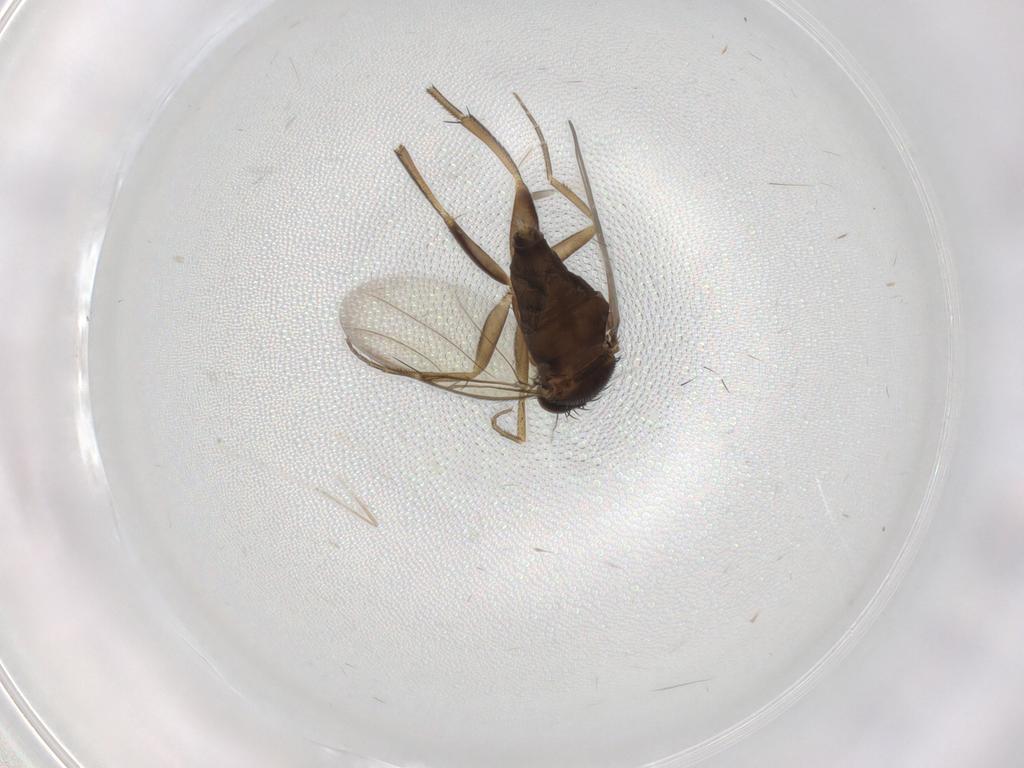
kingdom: Animalia
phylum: Arthropoda
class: Insecta
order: Diptera
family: Phoridae
